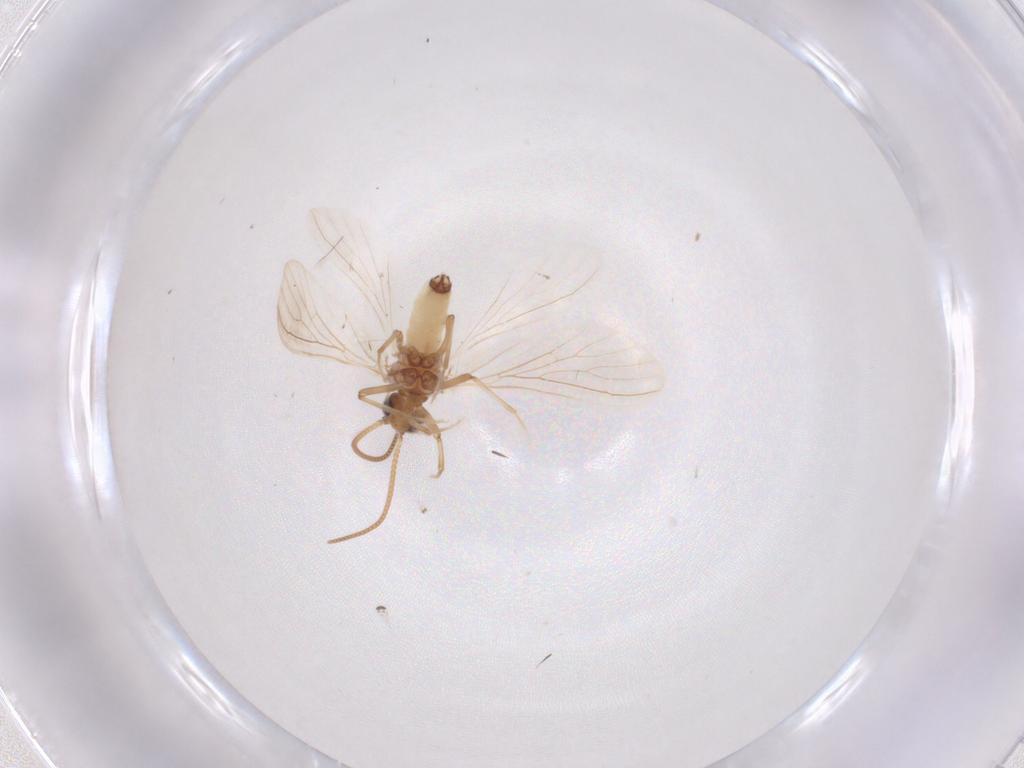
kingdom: Animalia
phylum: Arthropoda
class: Insecta
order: Neuroptera
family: Coniopterygidae
